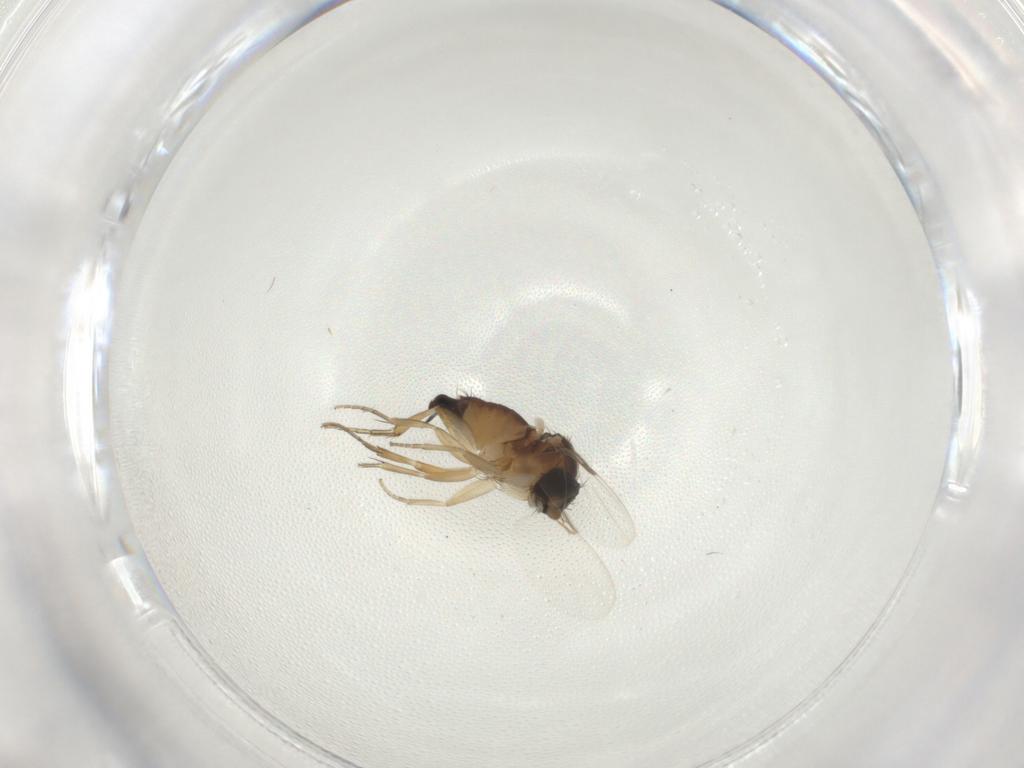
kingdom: Animalia
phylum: Arthropoda
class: Insecta
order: Diptera
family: Phoridae
